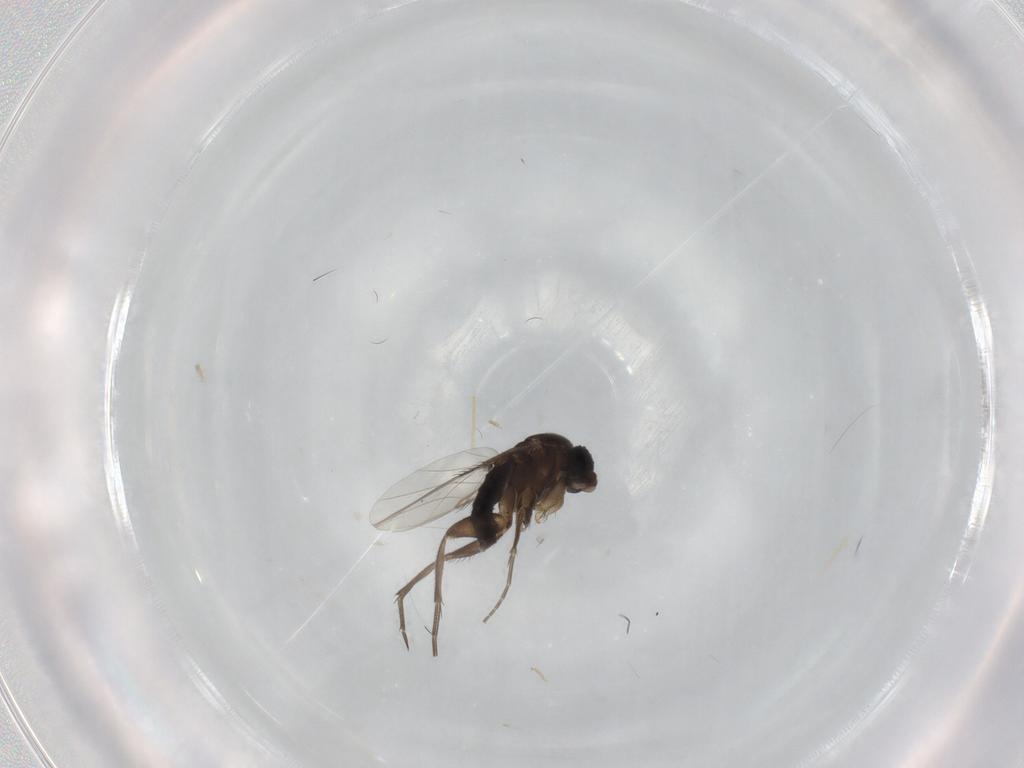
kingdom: Animalia
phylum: Arthropoda
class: Insecta
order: Diptera
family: Phoridae
